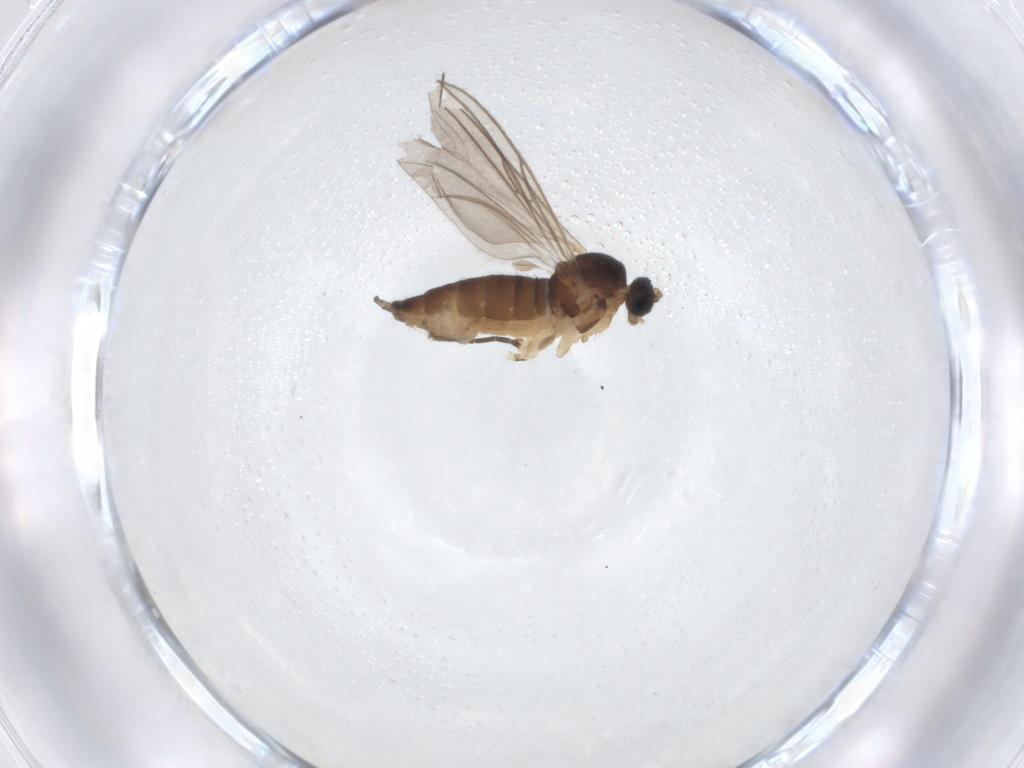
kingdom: Animalia
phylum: Arthropoda
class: Insecta
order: Diptera
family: Sciaridae
